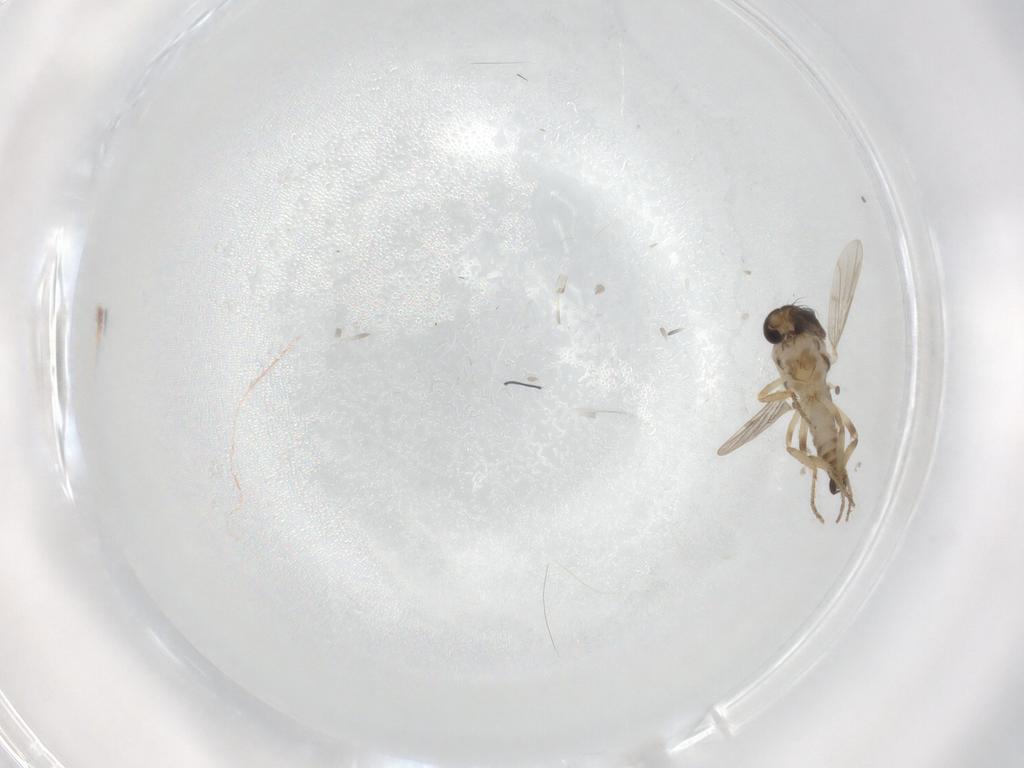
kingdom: Animalia
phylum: Arthropoda
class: Insecta
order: Diptera
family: Ceratopogonidae
